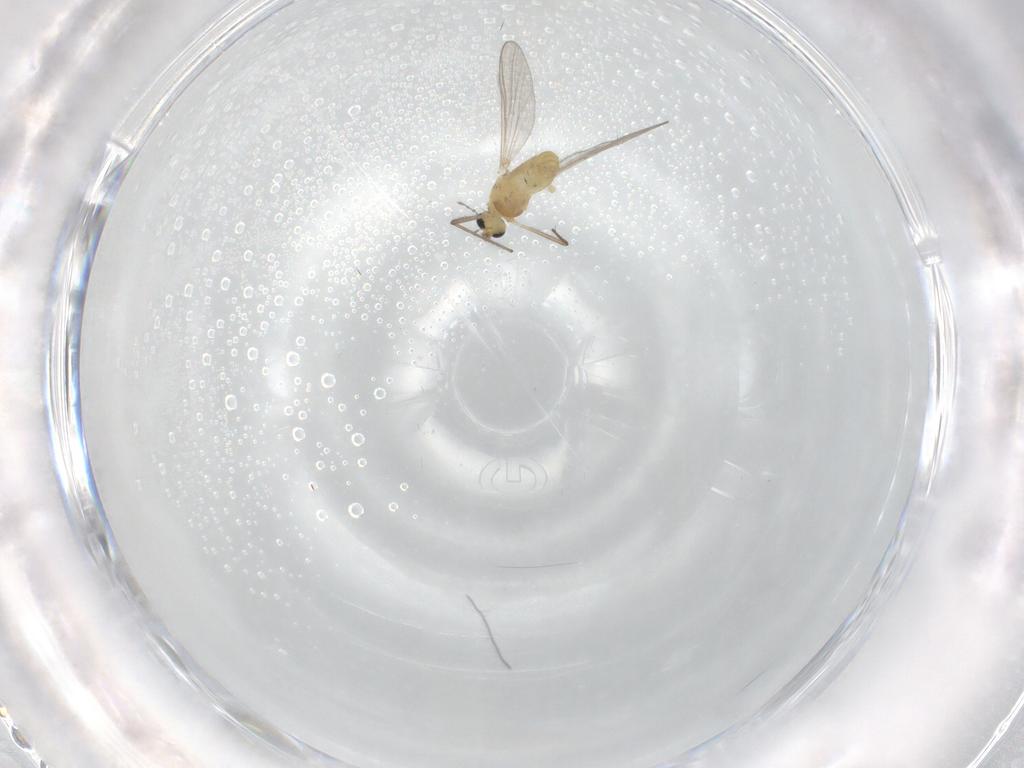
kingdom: Animalia
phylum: Arthropoda
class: Insecta
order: Diptera
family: Chironomidae
